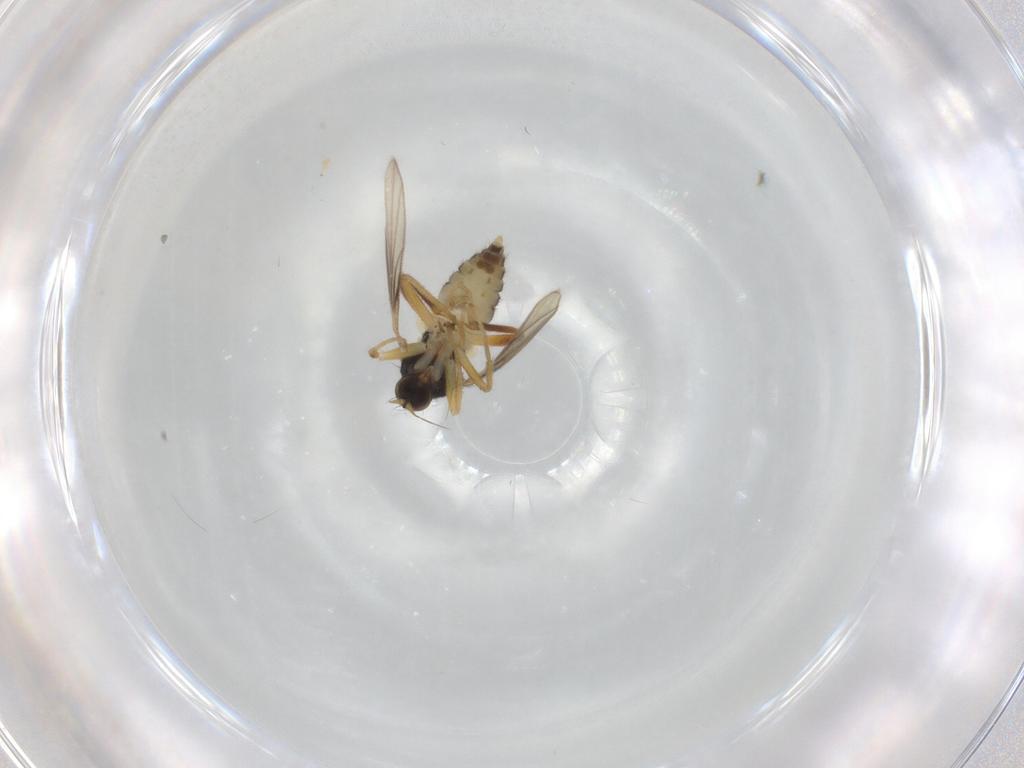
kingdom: Animalia
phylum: Arthropoda
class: Insecta
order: Diptera
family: Hybotidae
